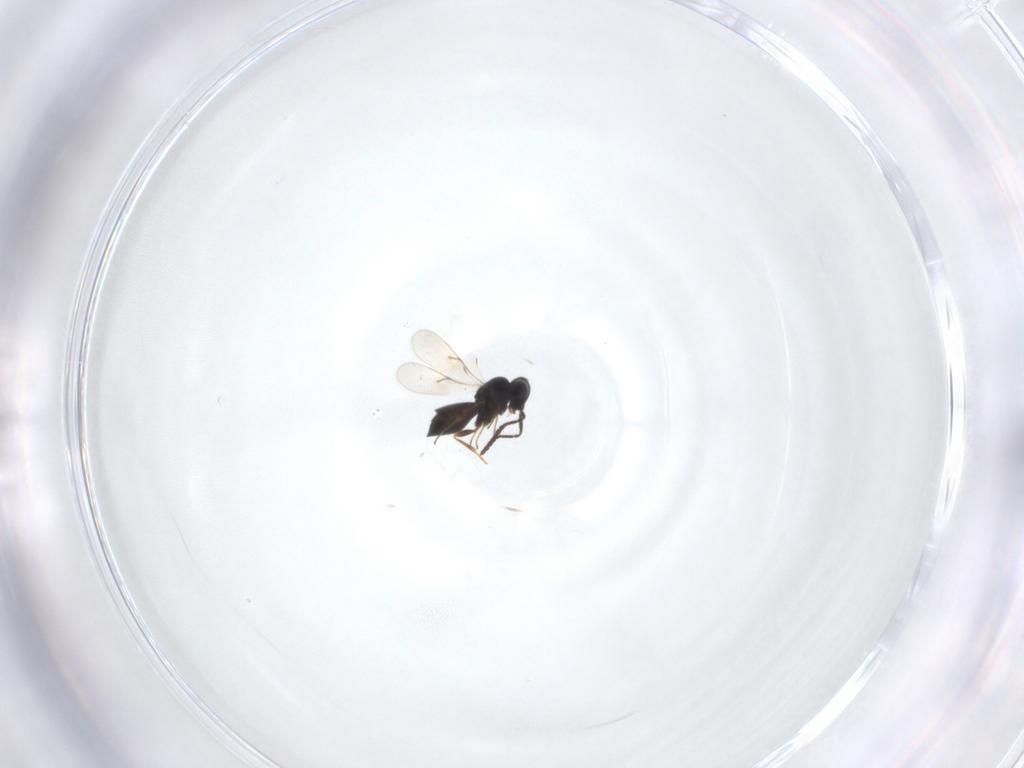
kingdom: Animalia
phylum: Arthropoda
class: Insecta
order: Hymenoptera
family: Scelionidae
